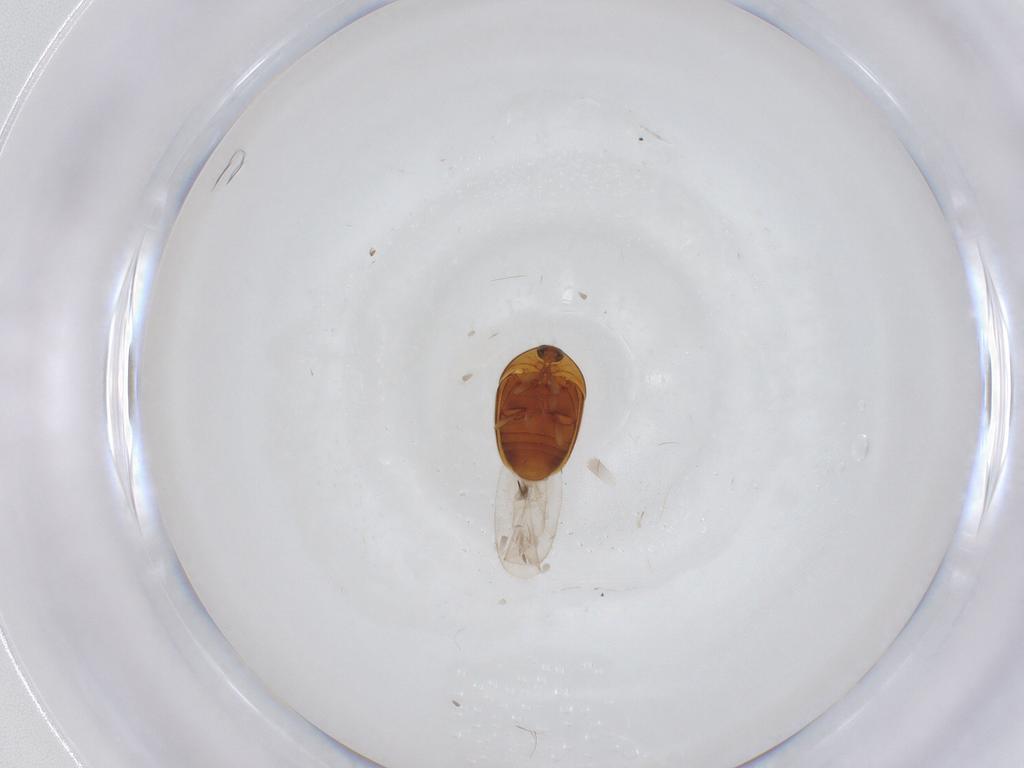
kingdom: Animalia
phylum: Arthropoda
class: Insecta
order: Coleoptera
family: Corylophidae
